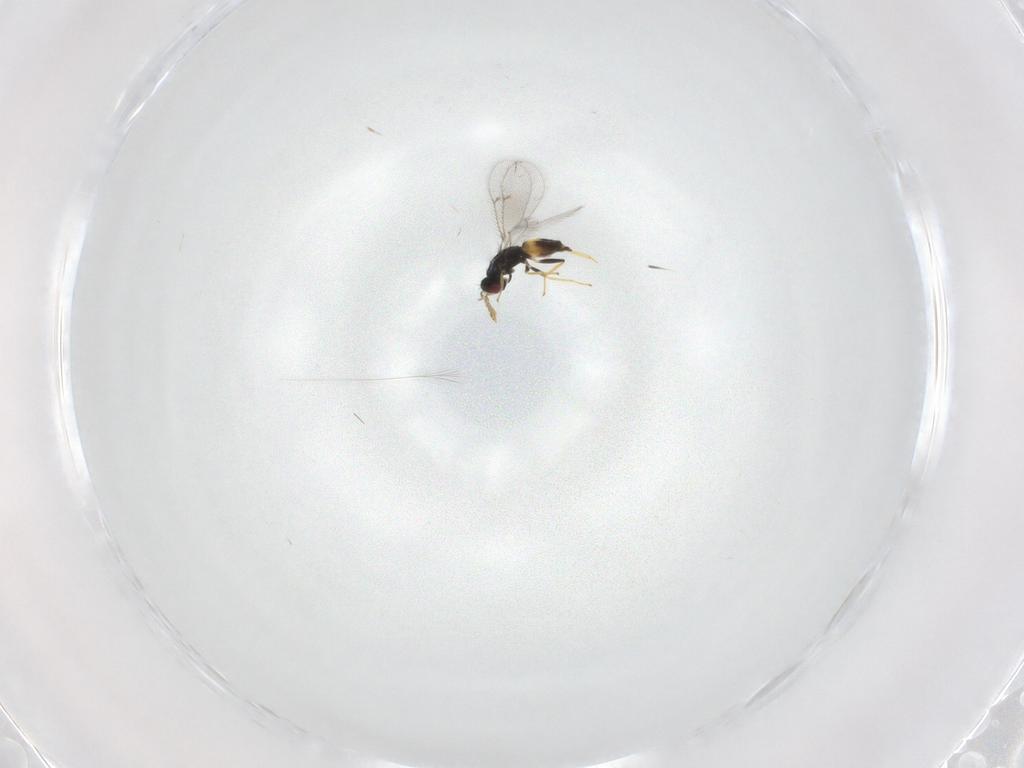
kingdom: Animalia
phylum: Arthropoda
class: Insecta
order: Hymenoptera
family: Eulophidae
